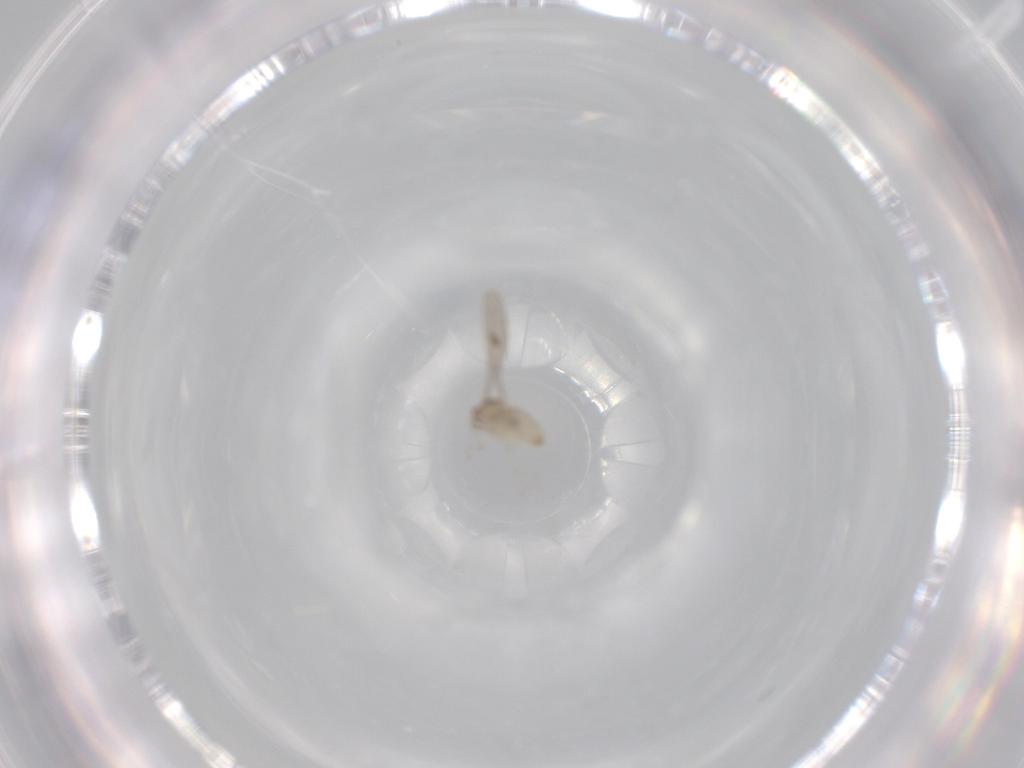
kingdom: Animalia
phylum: Arthropoda
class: Insecta
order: Diptera
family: Cecidomyiidae
